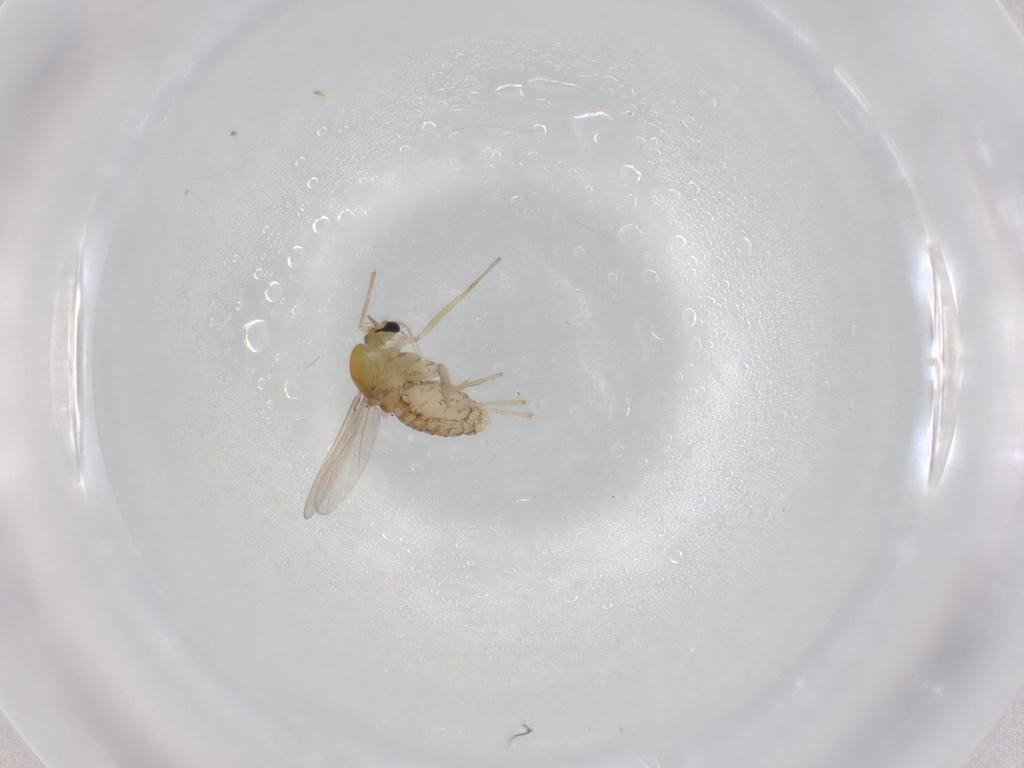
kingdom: Animalia
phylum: Arthropoda
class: Insecta
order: Diptera
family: Chironomidae
